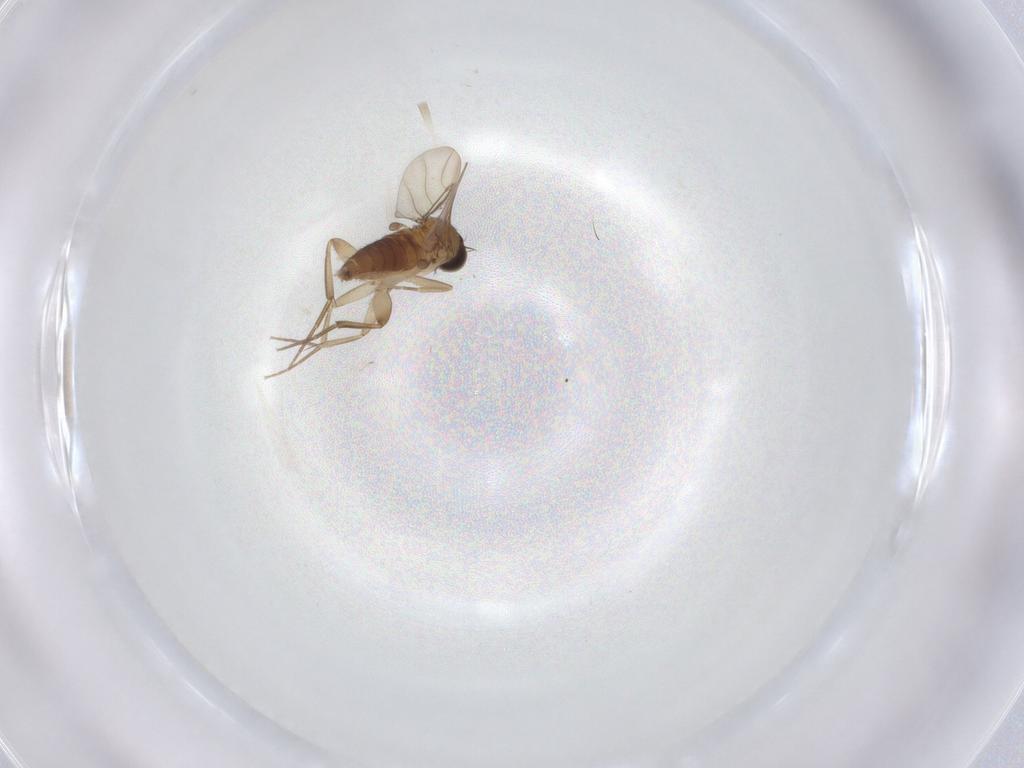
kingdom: Animalia
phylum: Arthropoda
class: Insecta
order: Diptera
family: Phoridae
